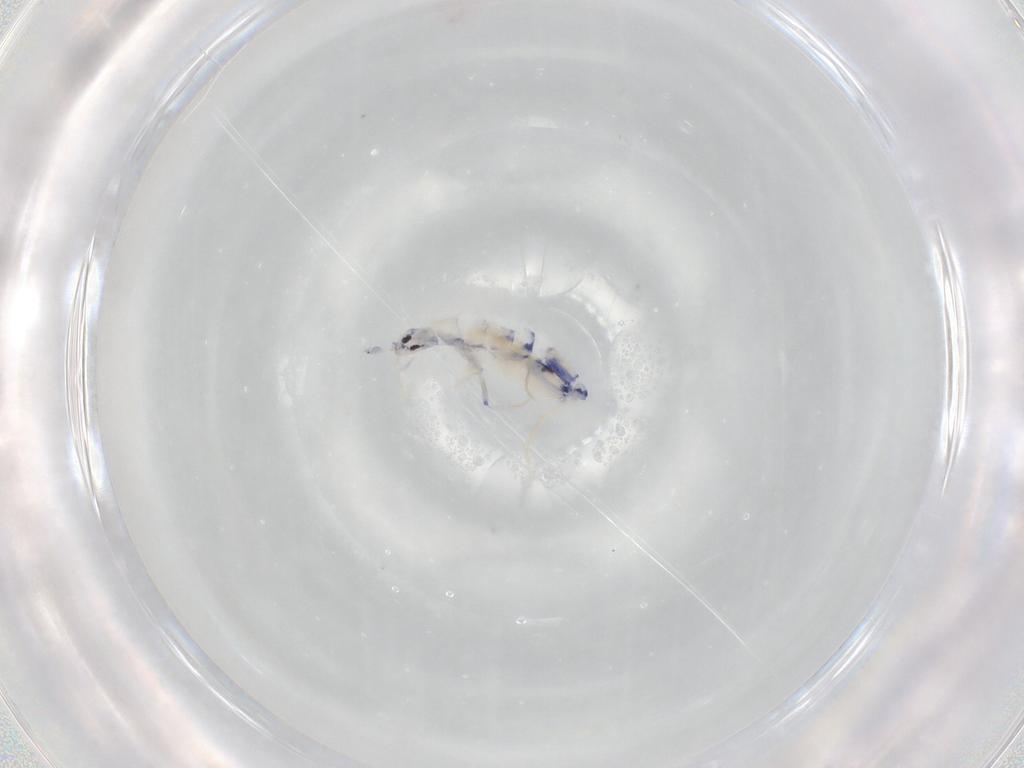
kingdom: Animalia
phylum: Arthropoda
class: Collembola
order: Entomobryomorpha
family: Entomobryidae
